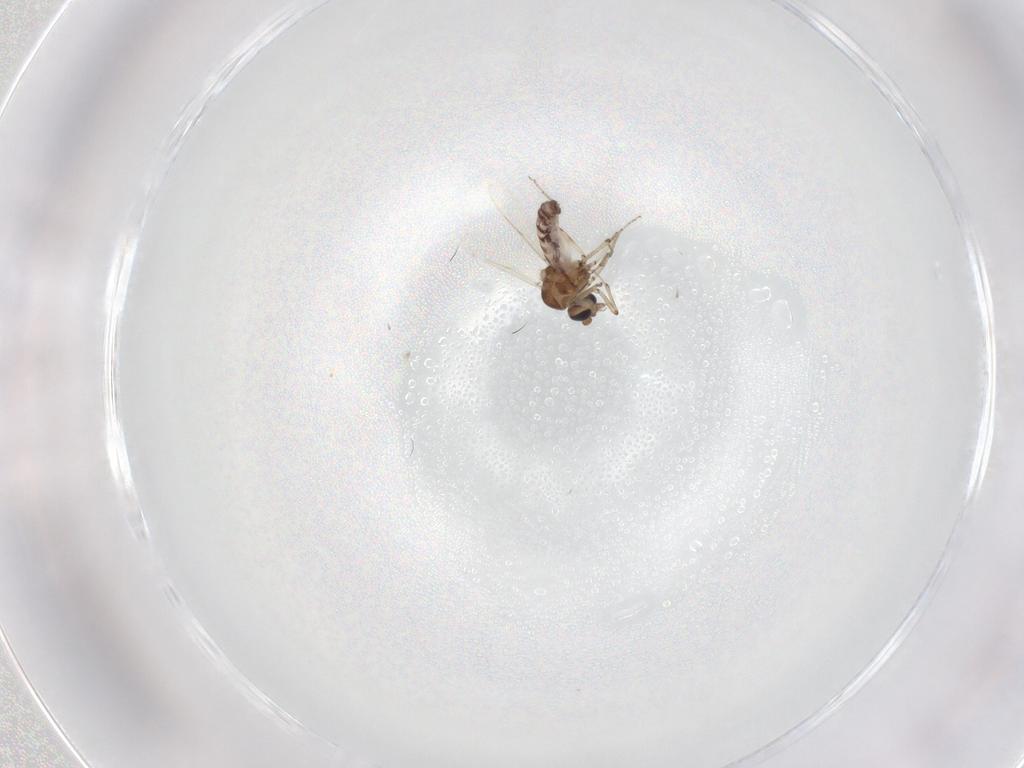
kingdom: Animalia
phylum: Arthropoda
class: Insecta
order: Diptera
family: Ceratopogonidae
